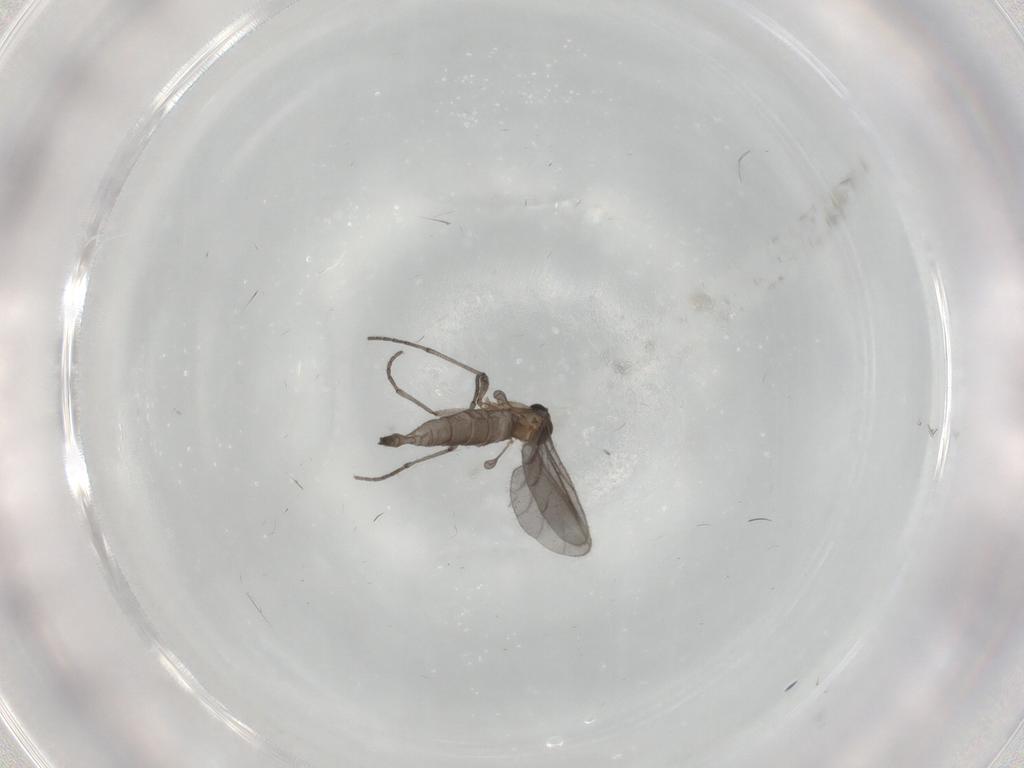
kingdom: Animalia
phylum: Arthropoda
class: Insecta
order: Diptera
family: Sciaridae
